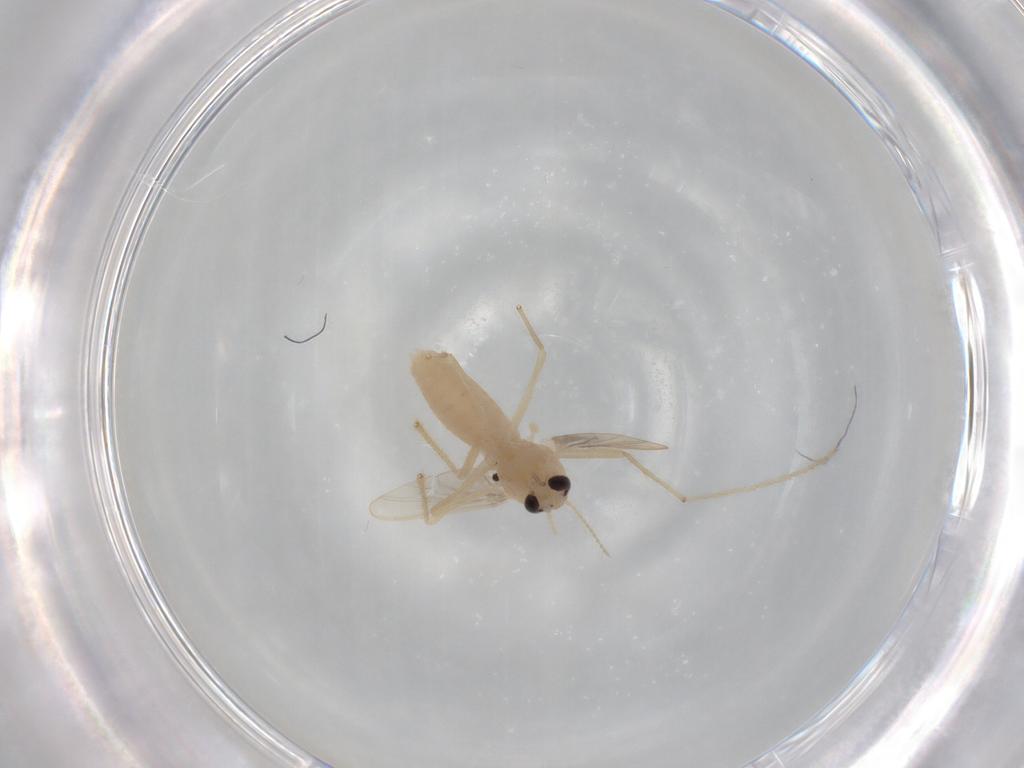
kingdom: Animalia
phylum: Arthropoda
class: Insecta
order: Diptera
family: Chironomidae
